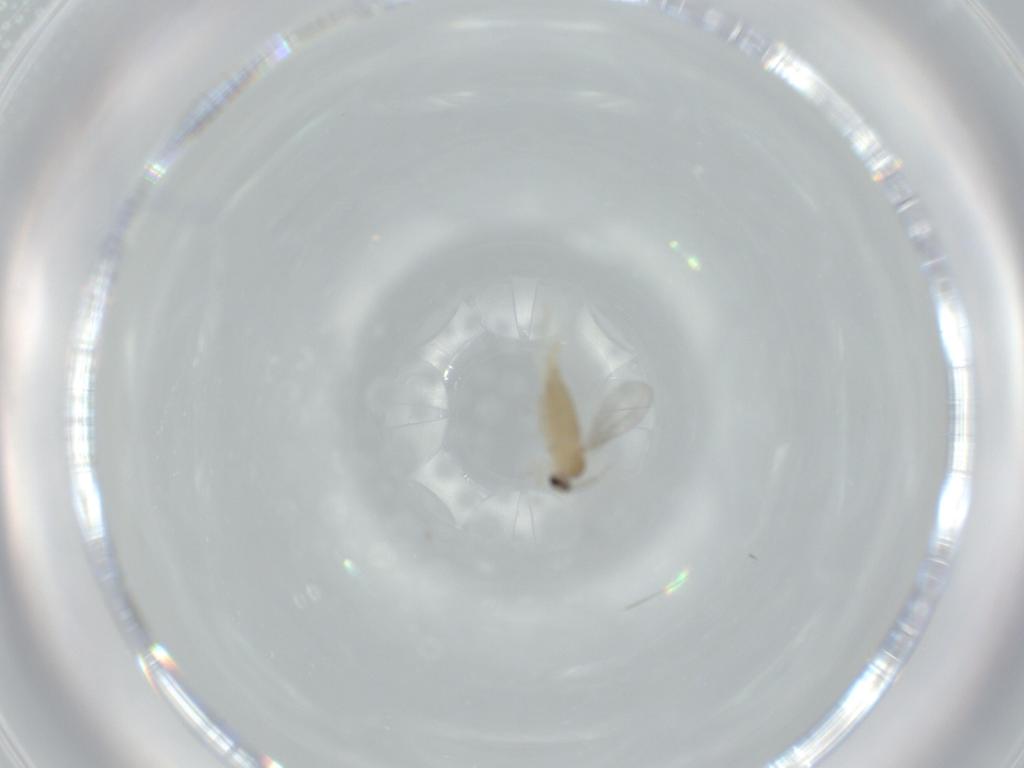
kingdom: Animalia
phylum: Arthropoda
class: Insecta
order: Diptera
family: Cecidomyiidae
